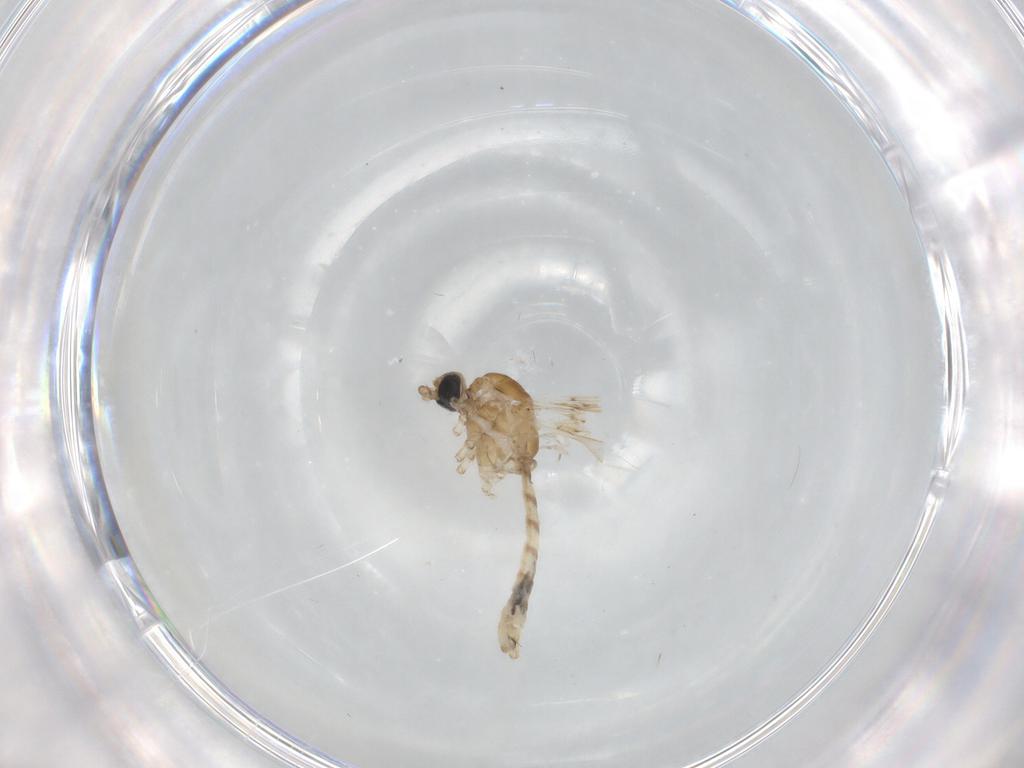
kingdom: Animalia
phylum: Arthropoda
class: Insecta
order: Diptera
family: Limoniidae
